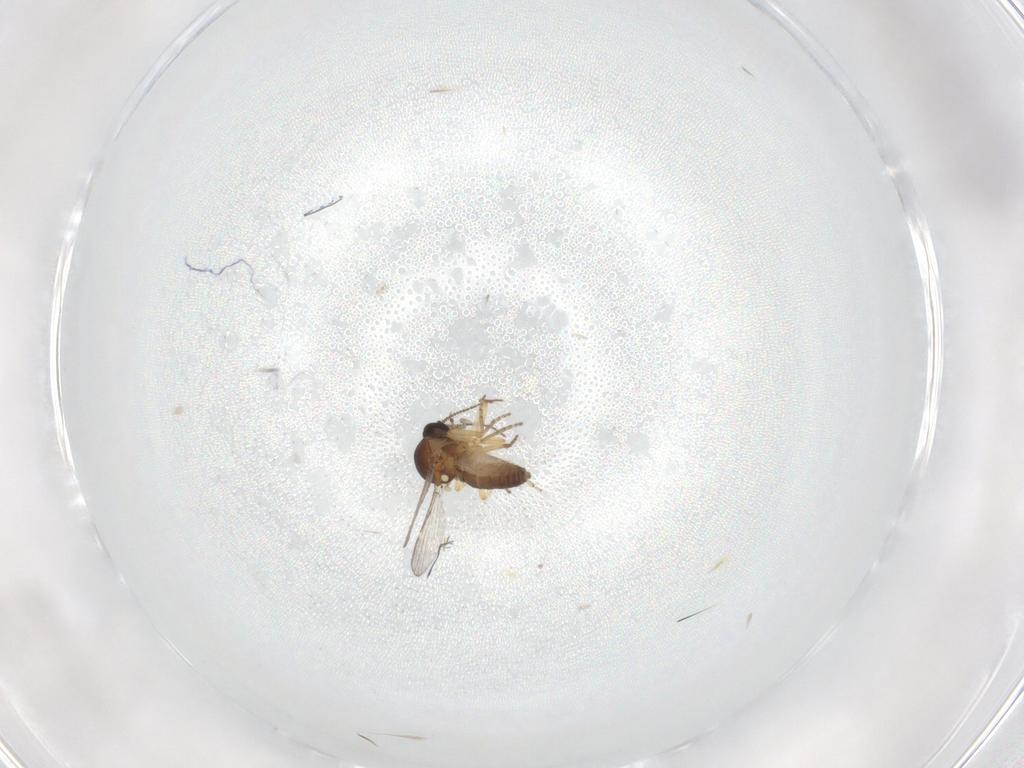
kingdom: Animalia
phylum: Arthropoda
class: Insecta
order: Diptera
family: Ceratopogonidae
